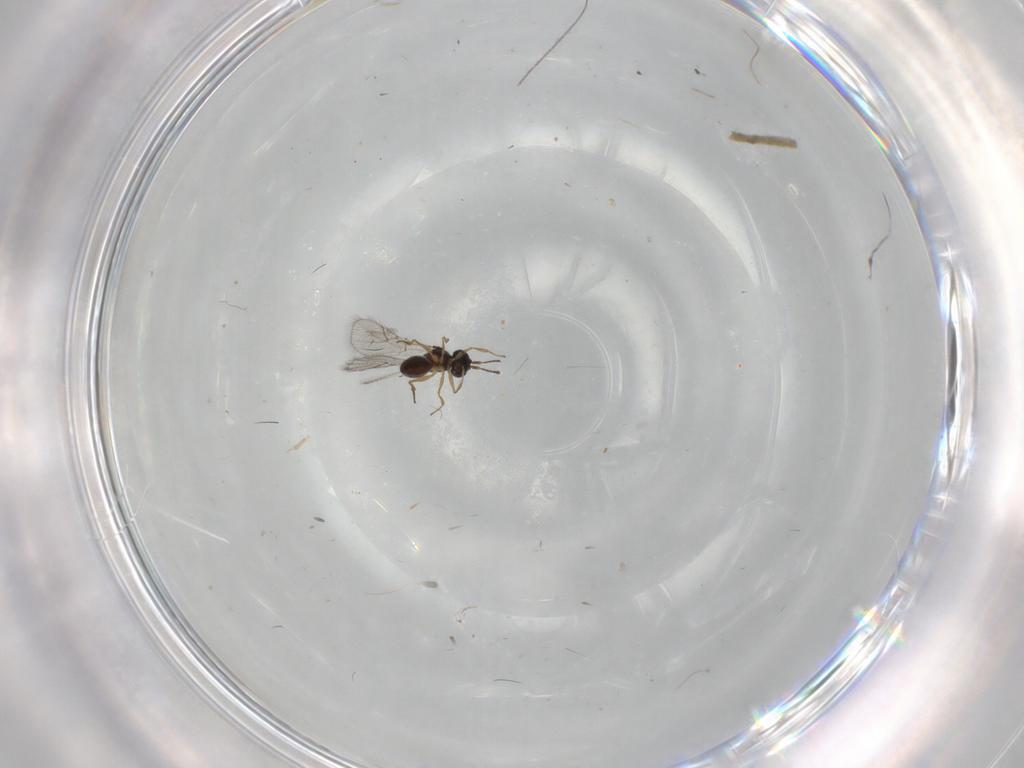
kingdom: Animalia
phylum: Arthropoda
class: Insecta
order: Hymenoptera
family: Figitidae
